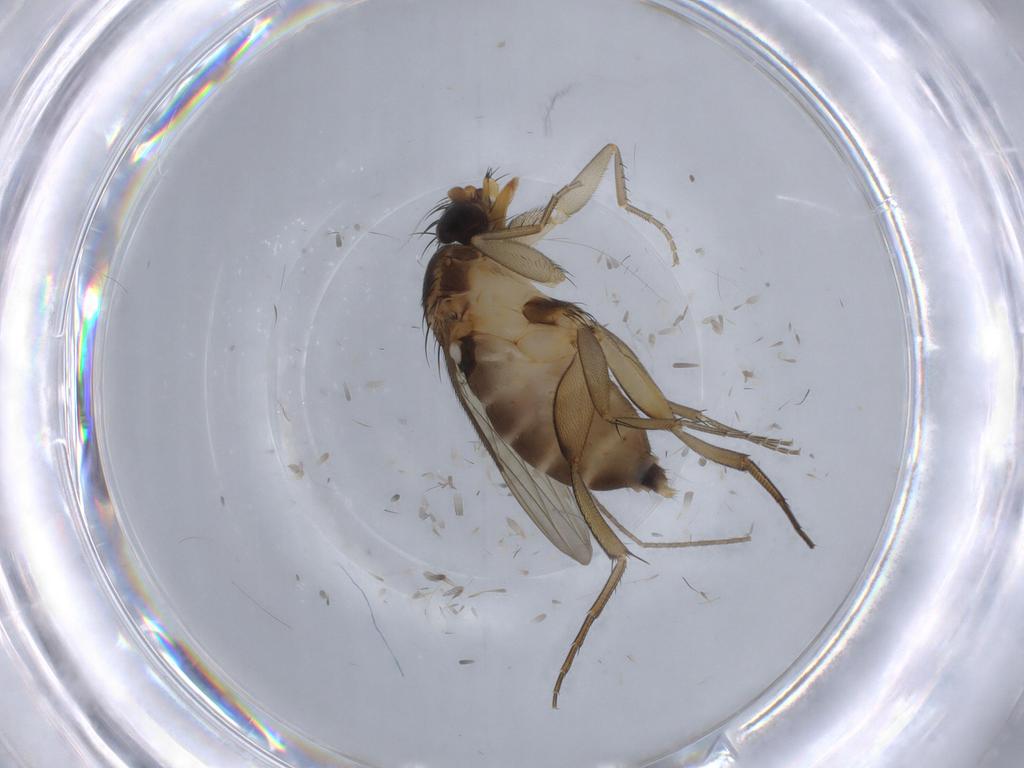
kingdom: Animalia
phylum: Arthropoda
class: Insecta
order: Diptera
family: Phoridae
